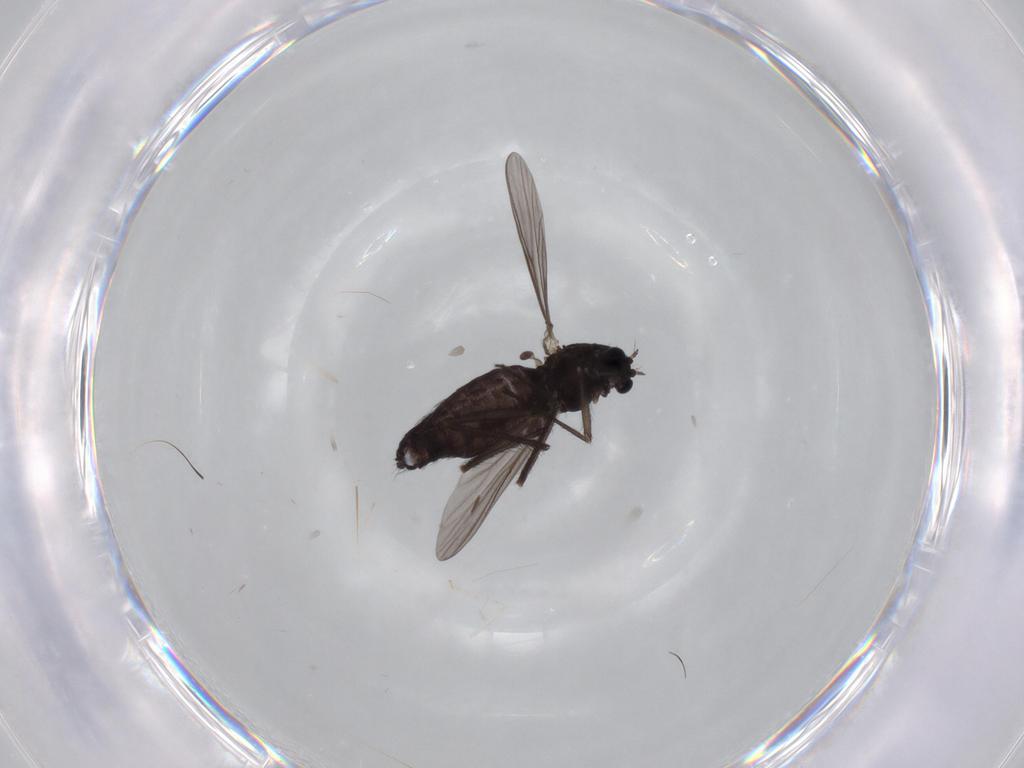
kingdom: Animalia
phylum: Arthropoda
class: Insecta
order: Diptera
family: Chironomidae
